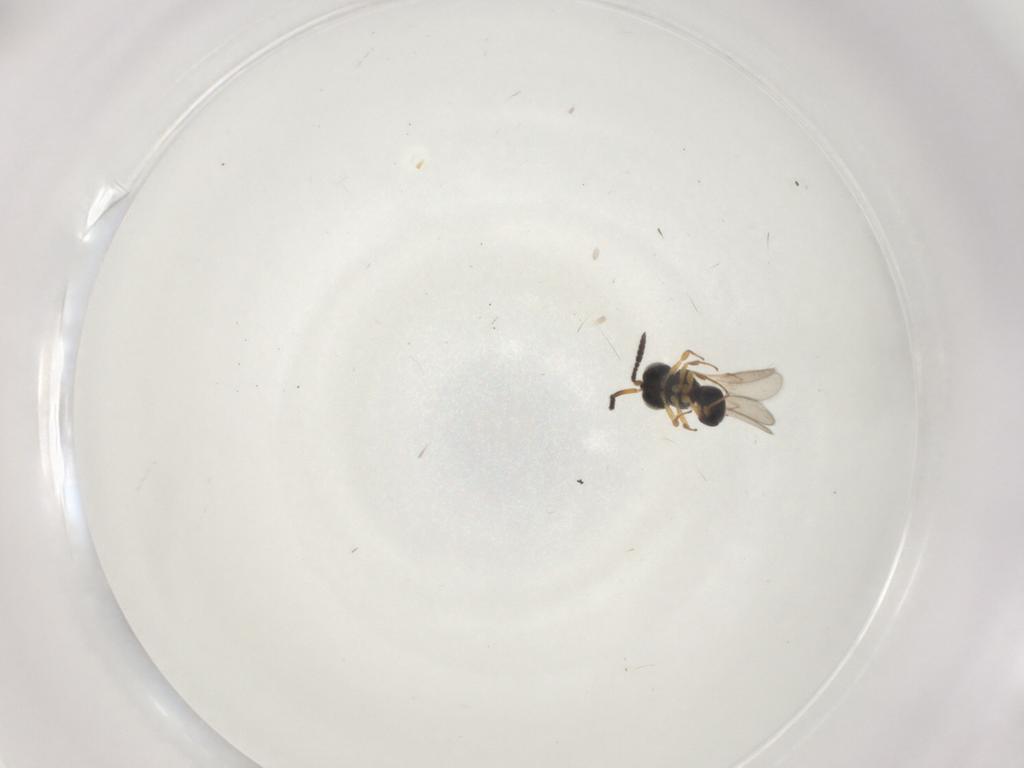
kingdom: Animalia
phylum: Arthropoda
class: Insecta
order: Hymenoptera
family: Scelionidae
